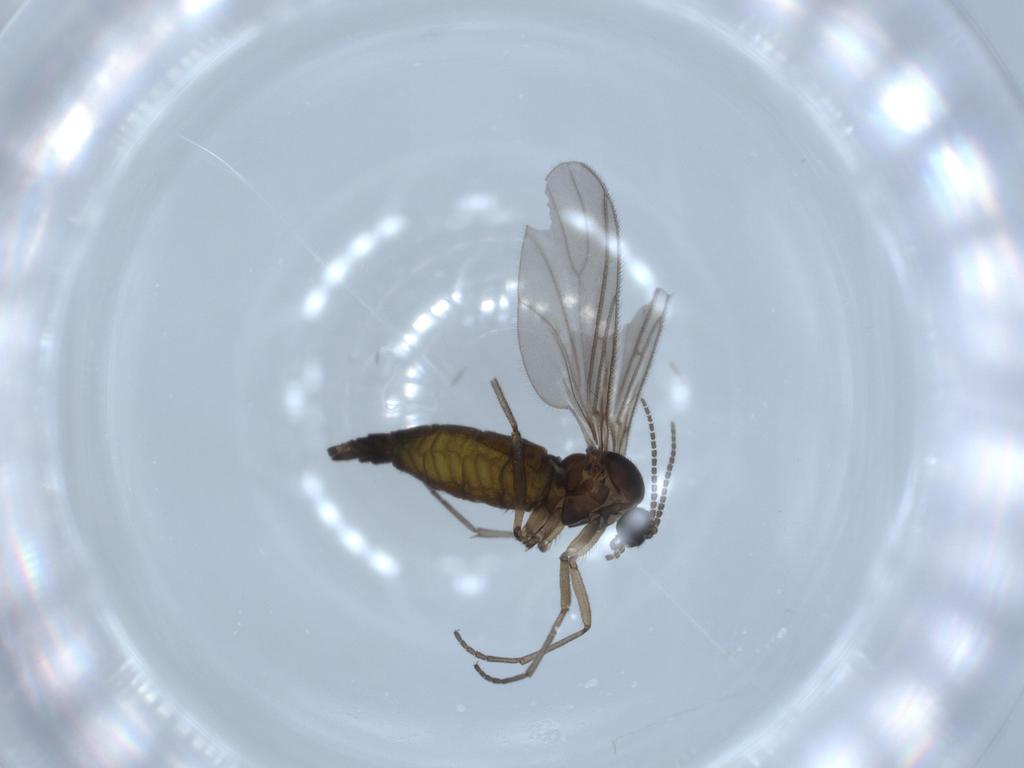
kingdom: Animalia
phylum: Arthropoda
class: Insecta
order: Diptera
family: Sciaridae
